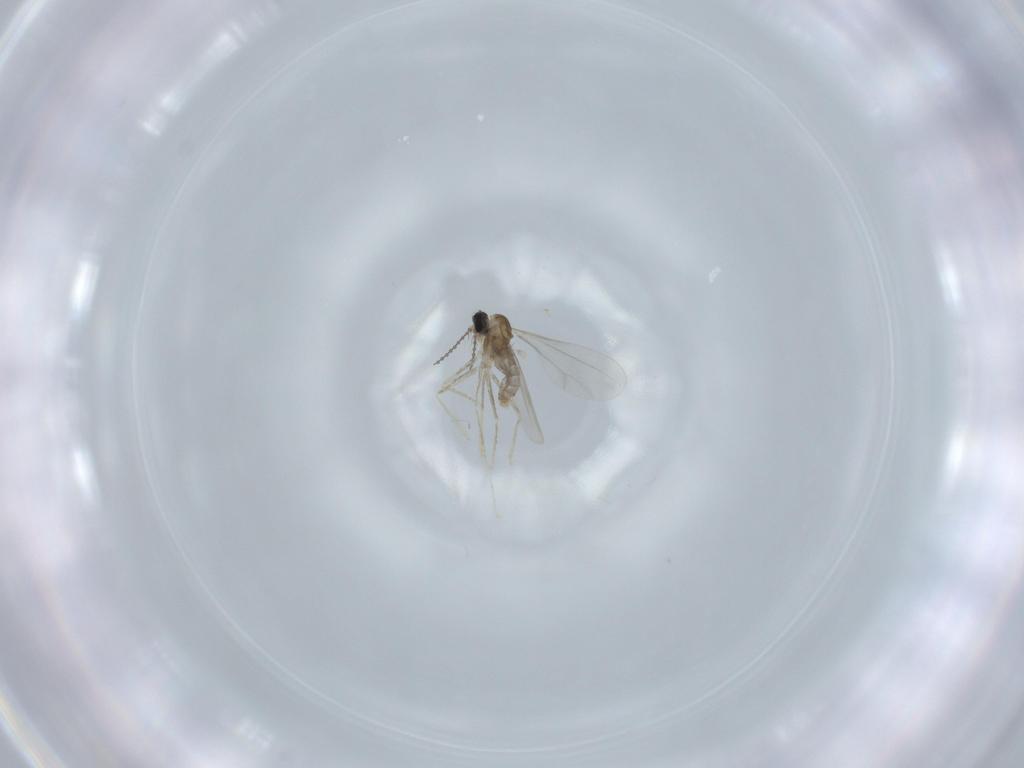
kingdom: Animalia
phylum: Arthropoda
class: Insecta
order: Diptera
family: Cecidomyiidae
